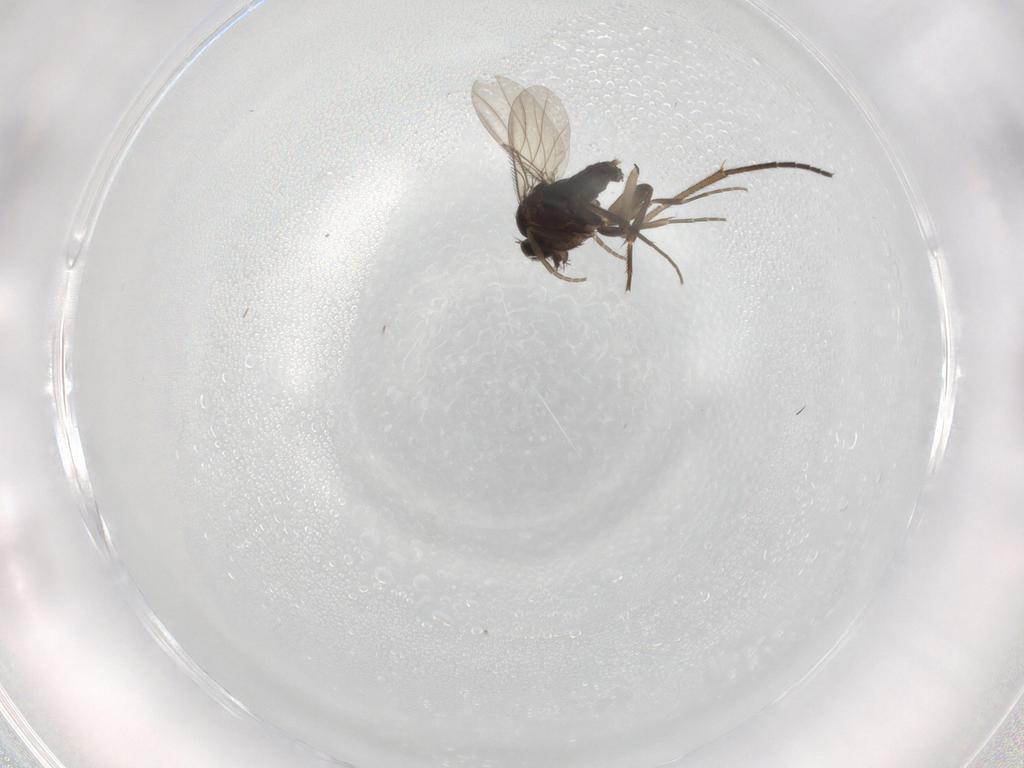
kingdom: Animalia
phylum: Arthropoda
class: Insecta
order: Diptera
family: Sciaridae
